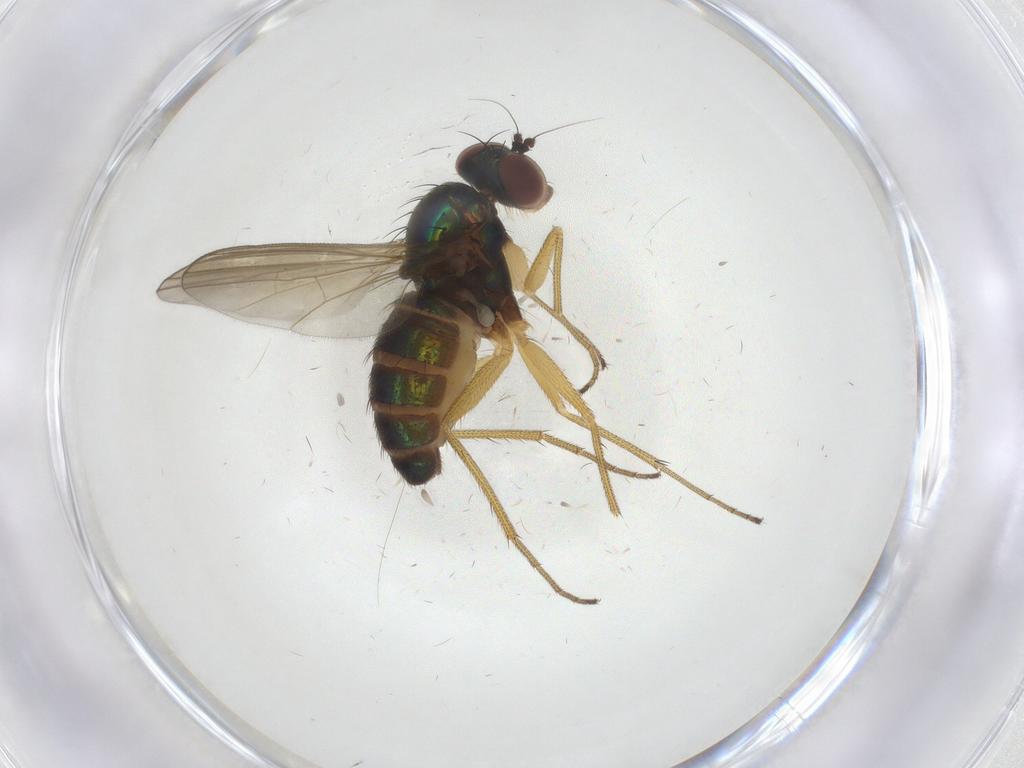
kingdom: Animalia
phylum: Arthropoda
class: Insecta
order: Diptera
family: Dolichopodidae
